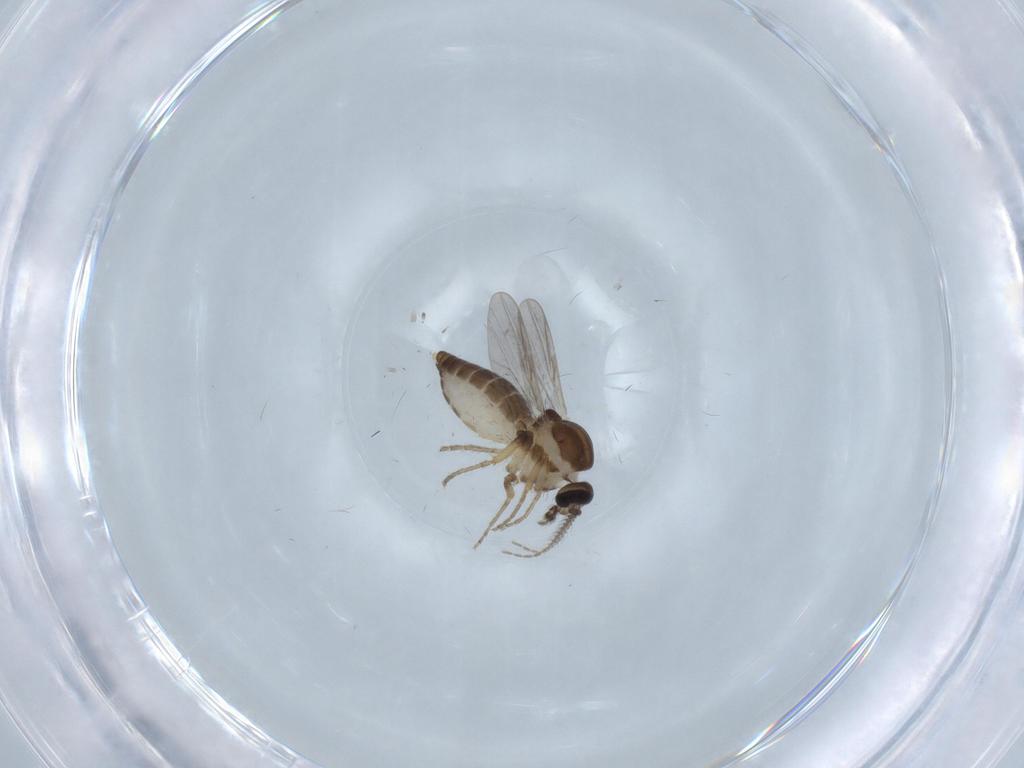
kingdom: Animalia
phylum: Arthropoda
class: Insecta
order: Diptera
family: Ceratopogonidae
